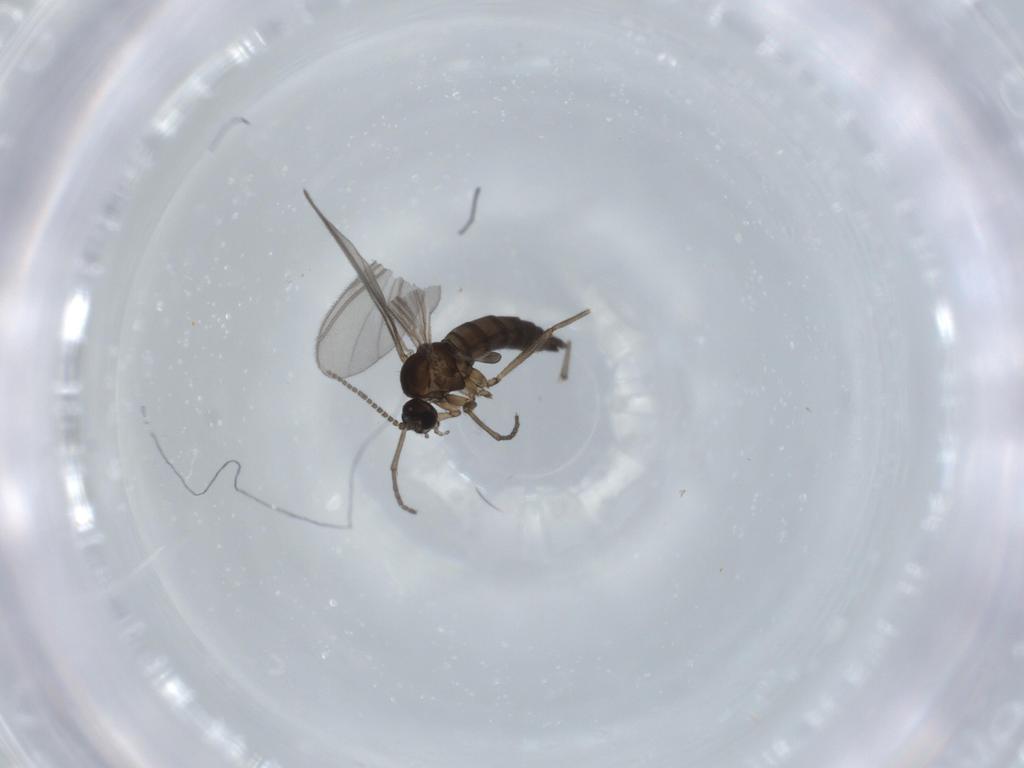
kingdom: Animalia
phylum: Arthropoda
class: Insecta
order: Diptera
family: Sciaridae
